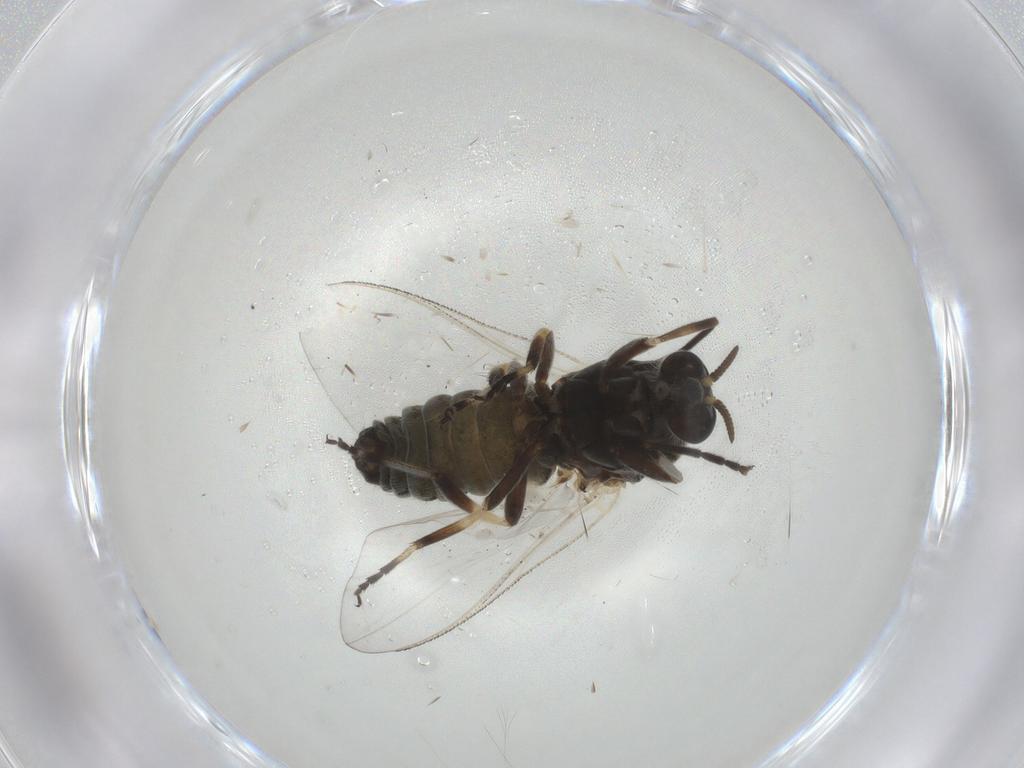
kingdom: Animalia
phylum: Arthropoda
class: Insecta
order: Diptera
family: Simuliidae
